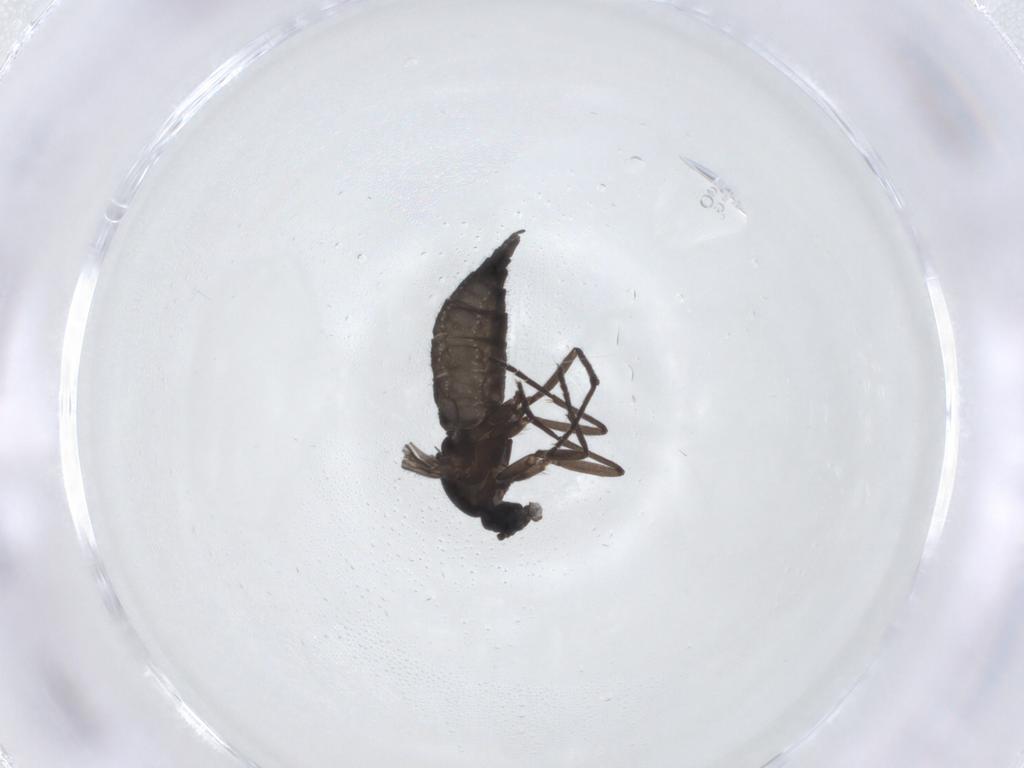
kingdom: Animalia
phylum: Arthropoda
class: Insecta
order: Diptera
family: Sciaridae
